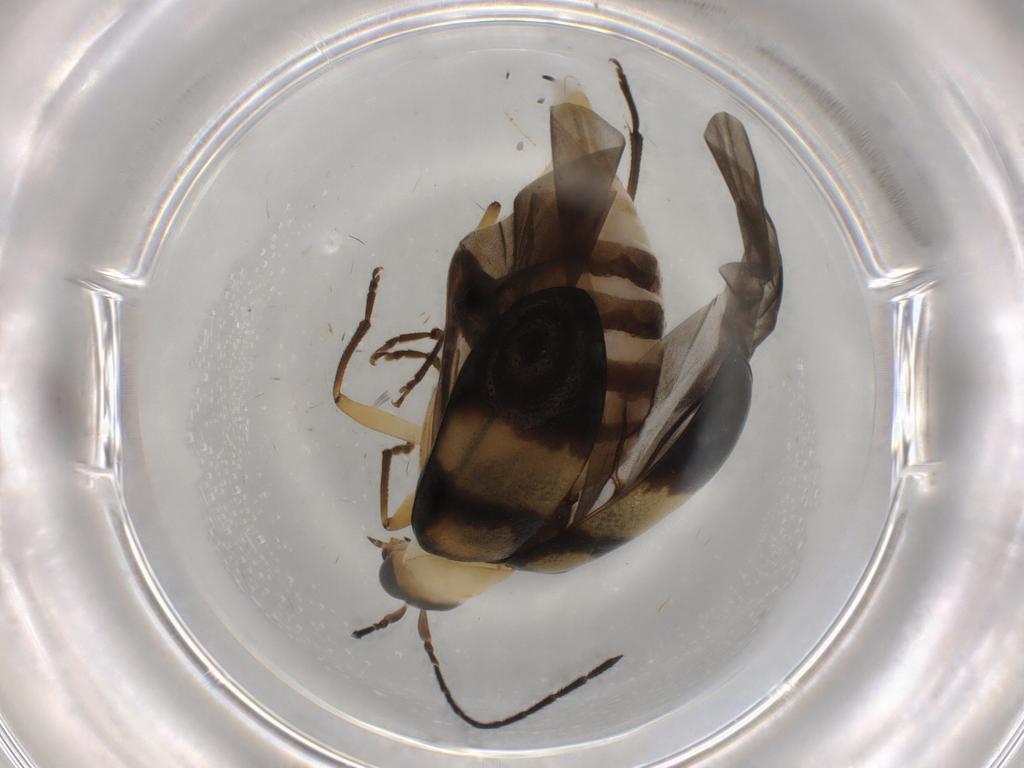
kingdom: Animalia
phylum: Arthropoda
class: Insecta
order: Coleoptera
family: Chrysomelidae
